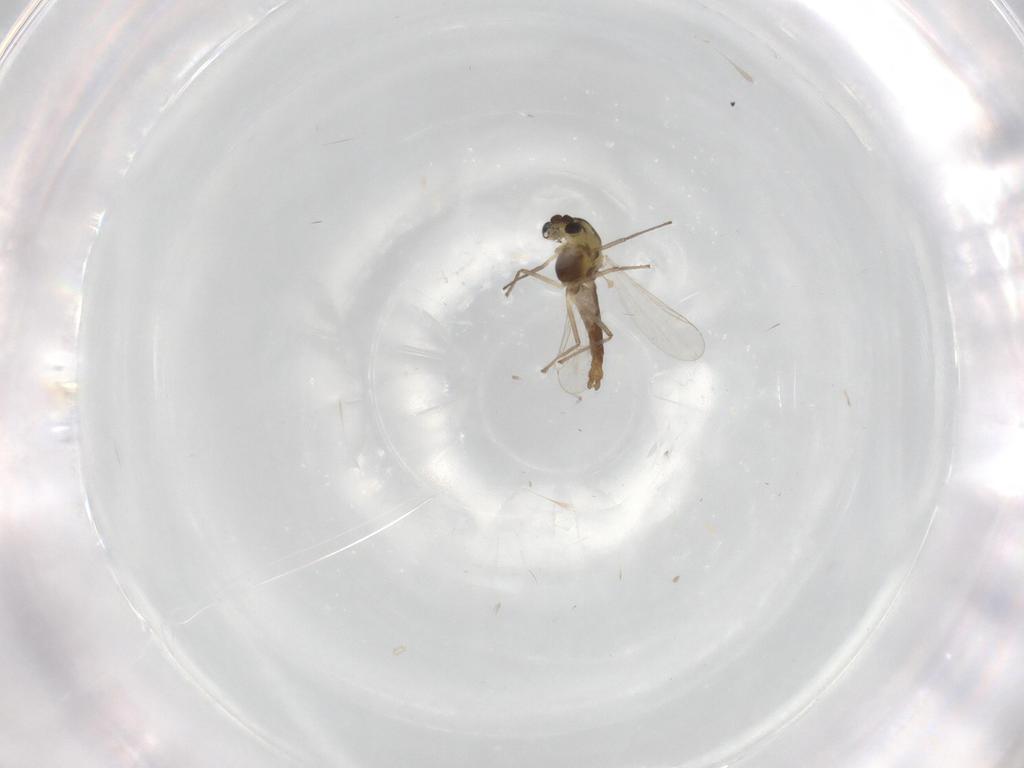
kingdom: Animalia
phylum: Arthropoda
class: Insecta
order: Diptera
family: Chironomidae
